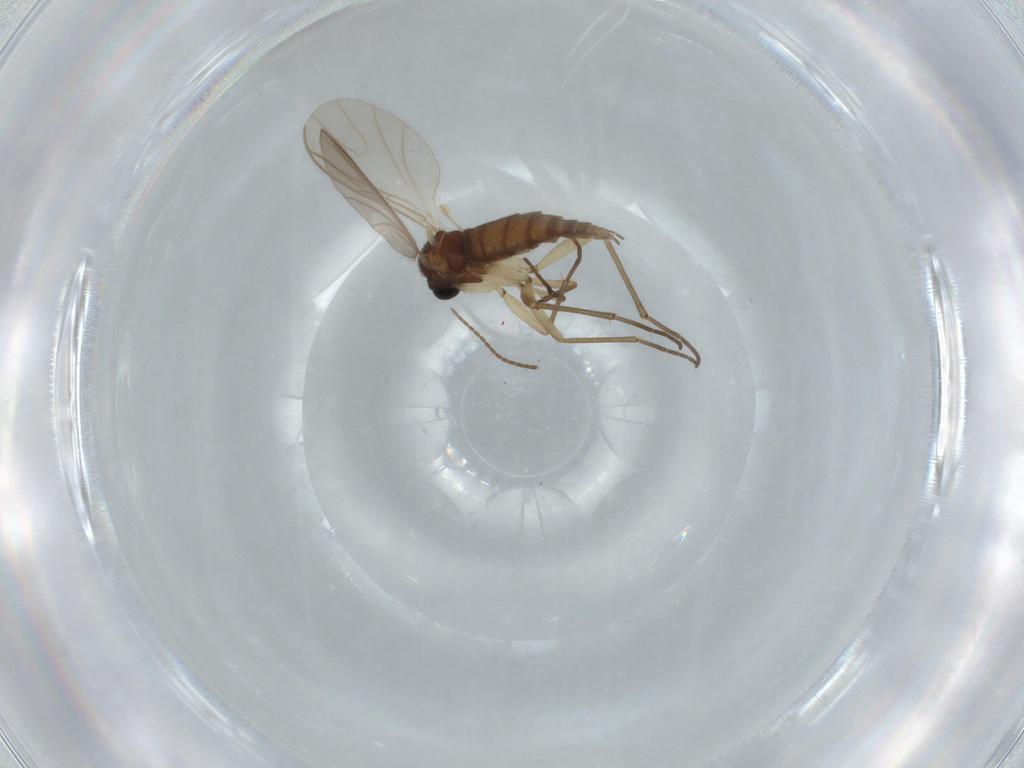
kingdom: Animalia
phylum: Arthropoda
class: Insecta
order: Diptera
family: Sciaridae
